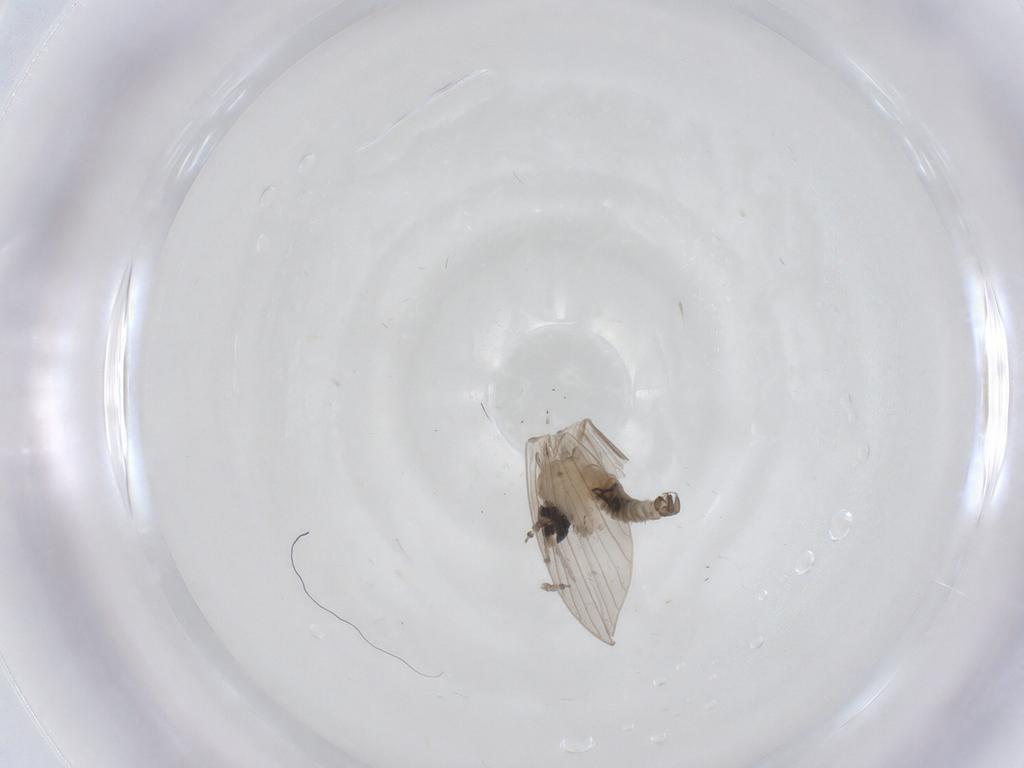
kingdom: Animalia
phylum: Arthropoda
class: Insecta
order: Diptera
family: Psychodidae
